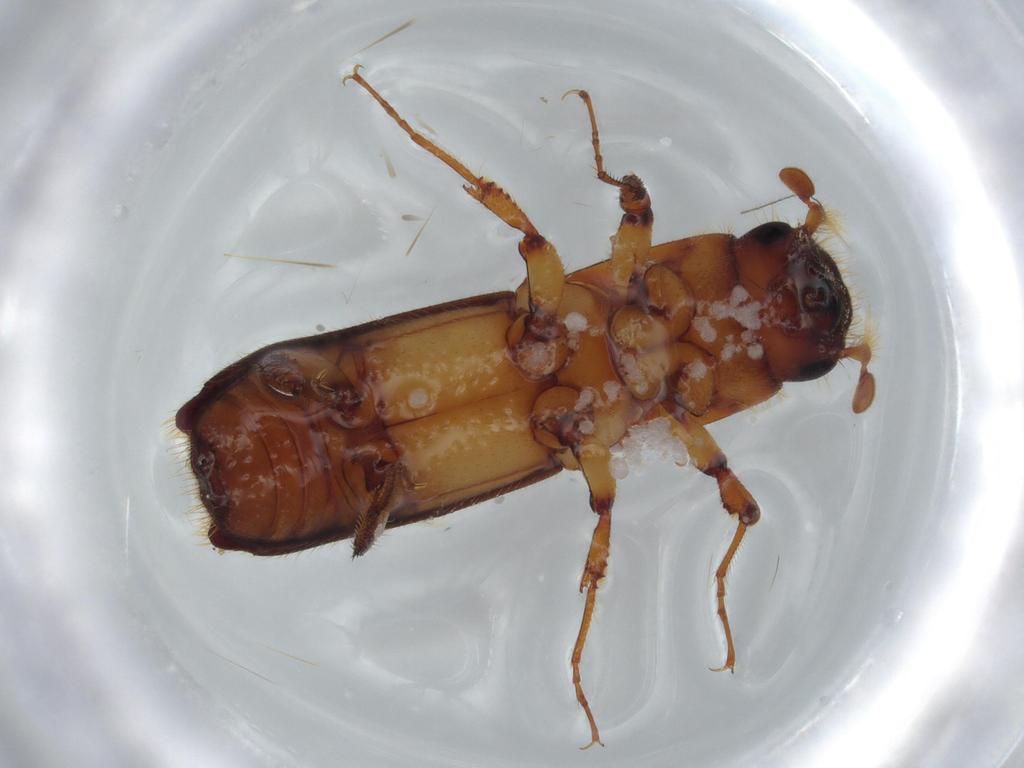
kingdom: Animalia
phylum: Arthropoda
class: Insecta
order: Coleoptera
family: Curculionidae
